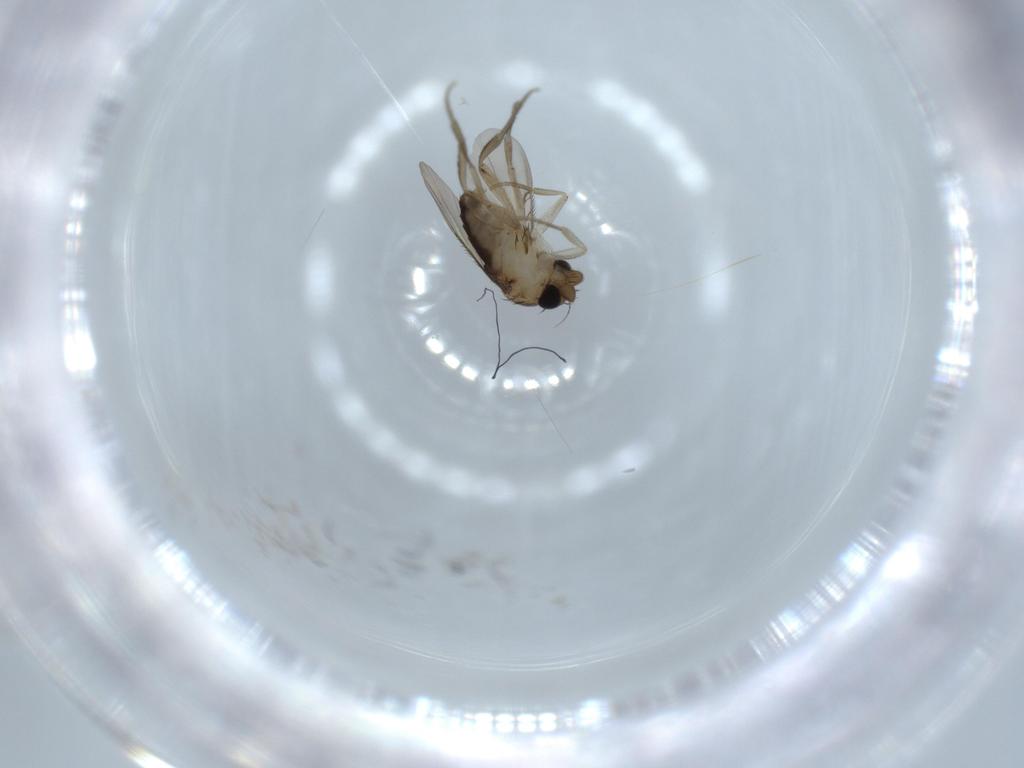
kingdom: Animalia
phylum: Arthropoda
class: Insecta
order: Diptera
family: Phoridae
